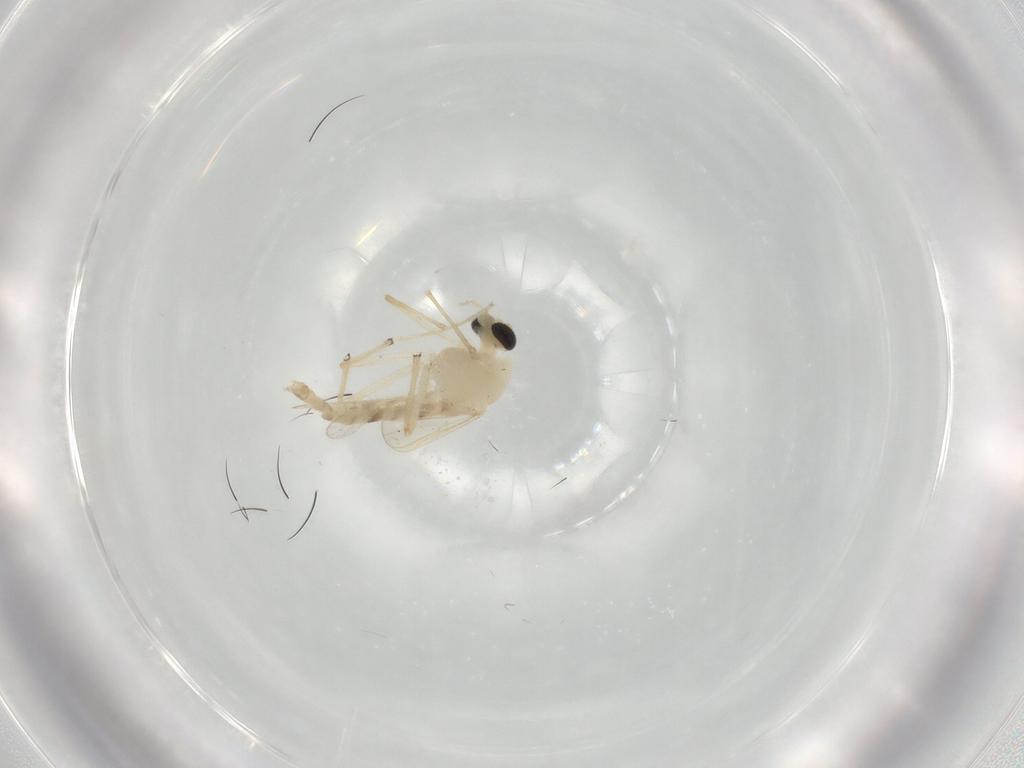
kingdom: Animalia
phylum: Arthropoda
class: Insecta
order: Diptera
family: Chironomidae
